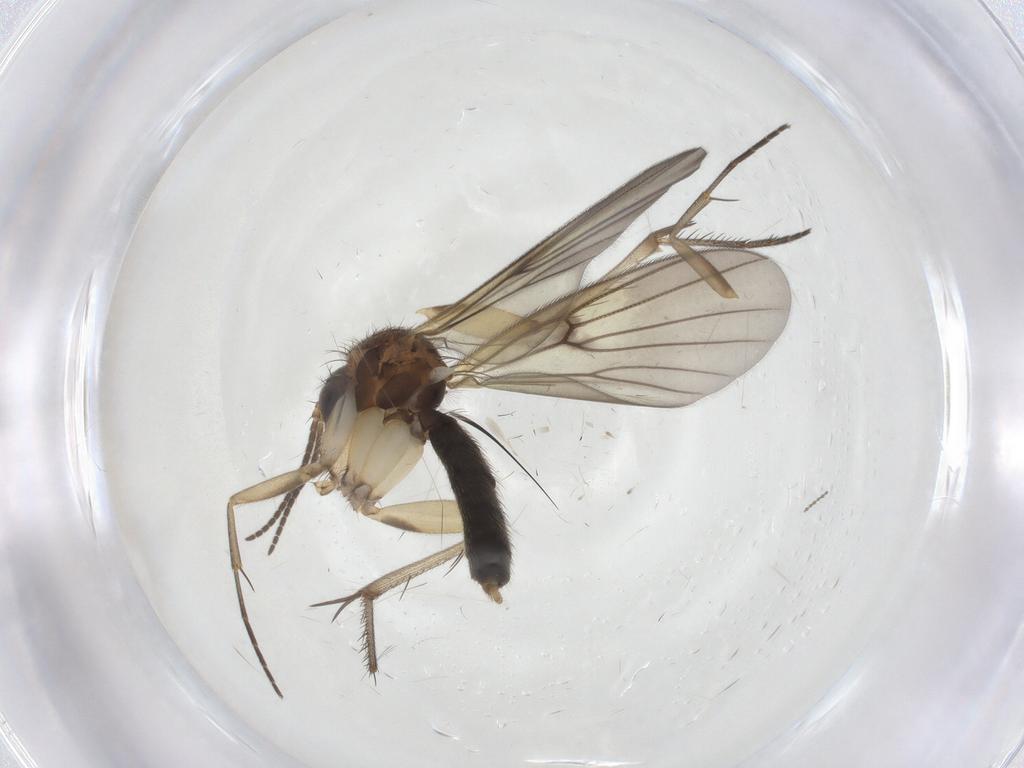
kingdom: Animalia
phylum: Arthropoda
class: Insecta
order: Diptera
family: Mycetophilidae
